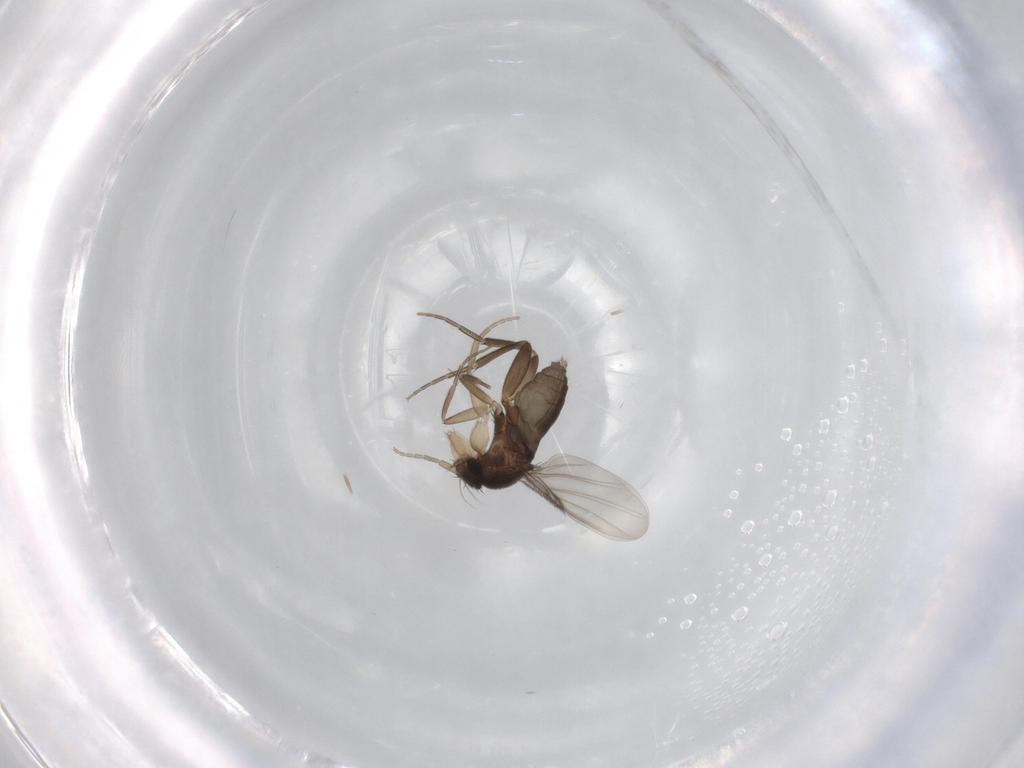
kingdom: Animalia
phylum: Arthropoda
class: Insecta
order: Diptera
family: Phoridae
